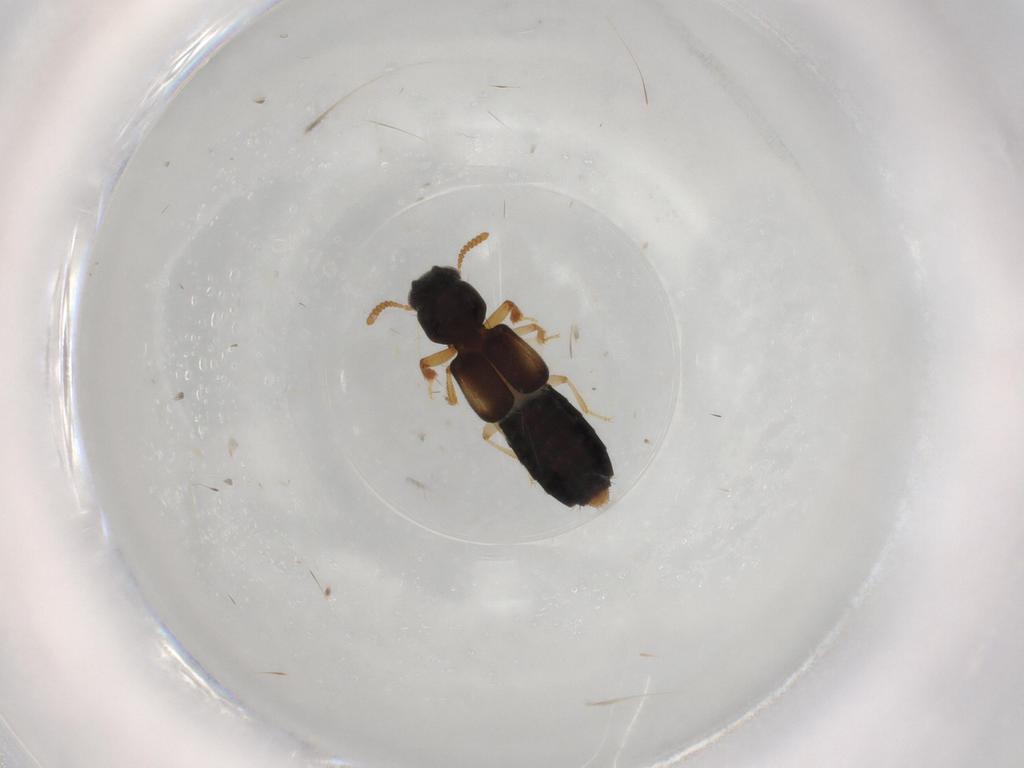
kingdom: Animalia
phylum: Arthropoda
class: Insecta
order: Coleoptera
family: Staphylinidae
